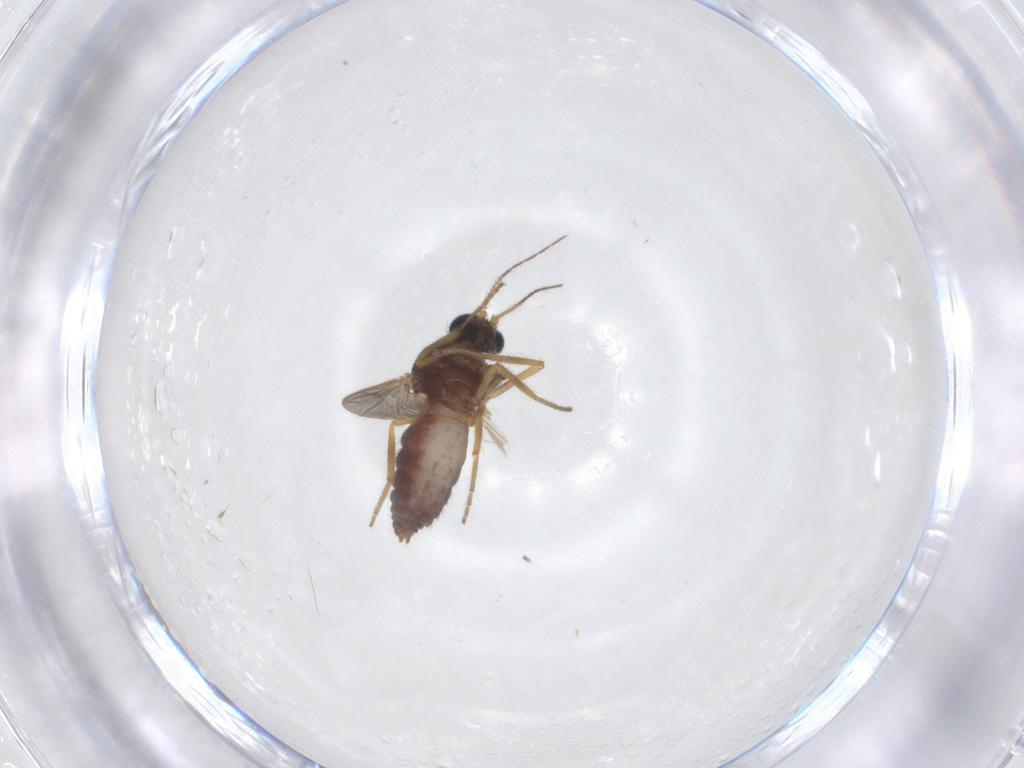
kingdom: Animalia
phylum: Arthropoda
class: Insecta
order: Diptera
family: Ceratopogonidae
